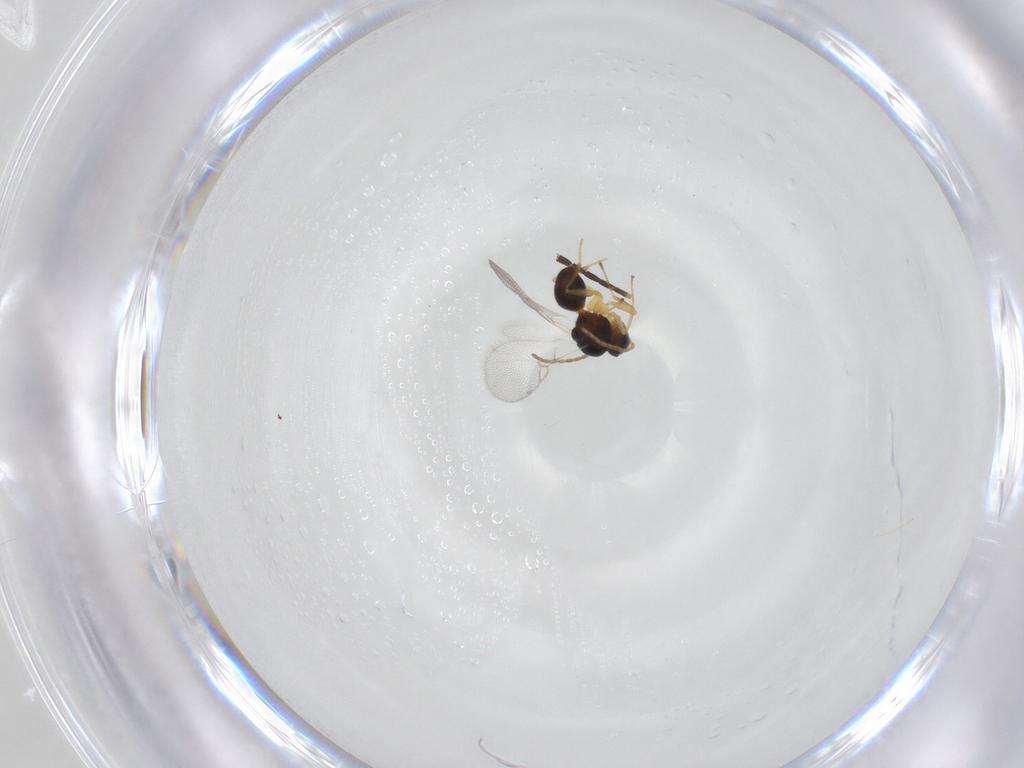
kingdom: Animalia
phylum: Arthropoda
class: Insecta
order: Hymenoptera
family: Figitidae
